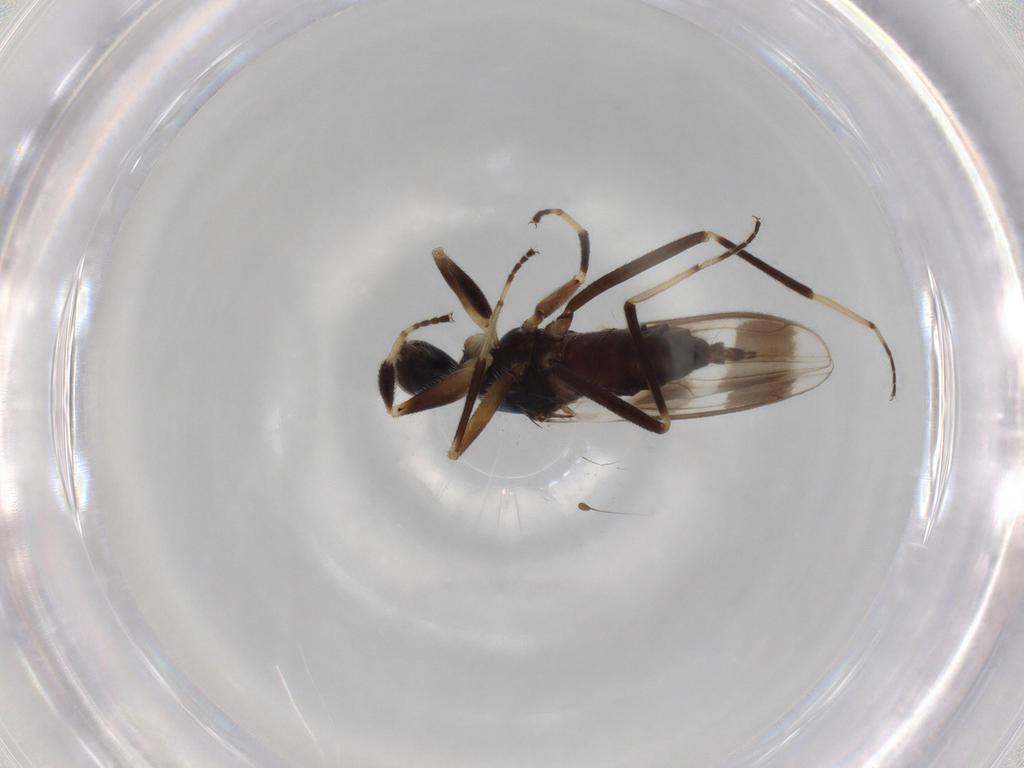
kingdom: Animalia
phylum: Arthropoda
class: Insecta
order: Diptera
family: Hybotidae
